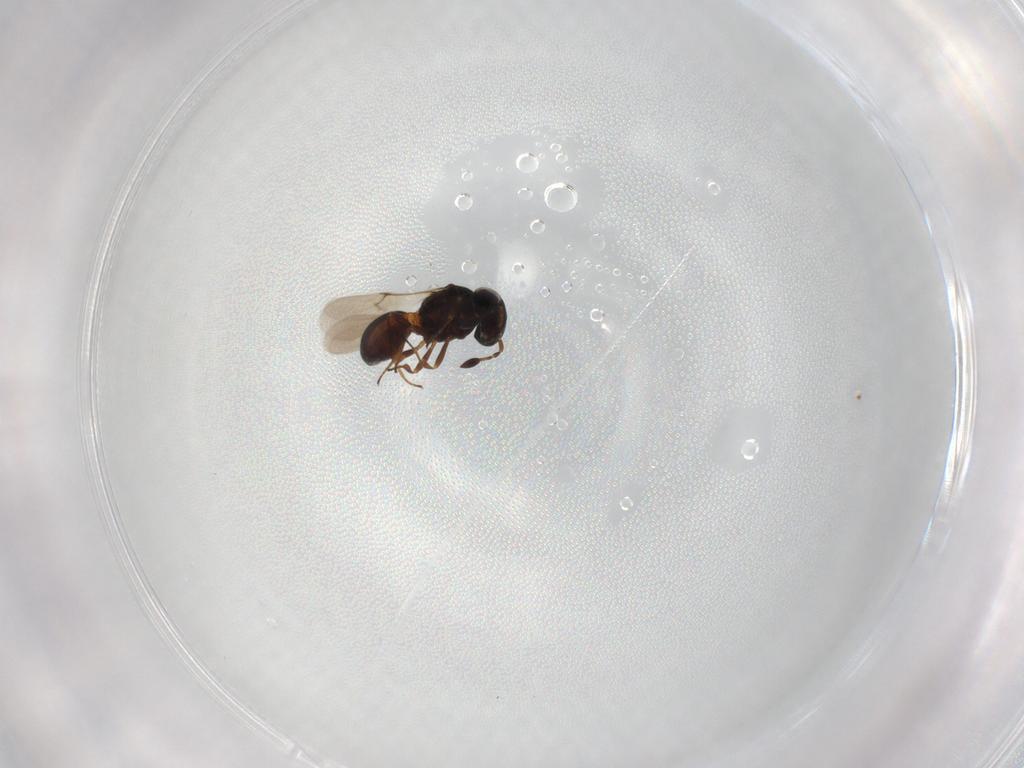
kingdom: Animalia
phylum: Arthropoda
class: Insecta
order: Hymenoptera
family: Scelionidae
